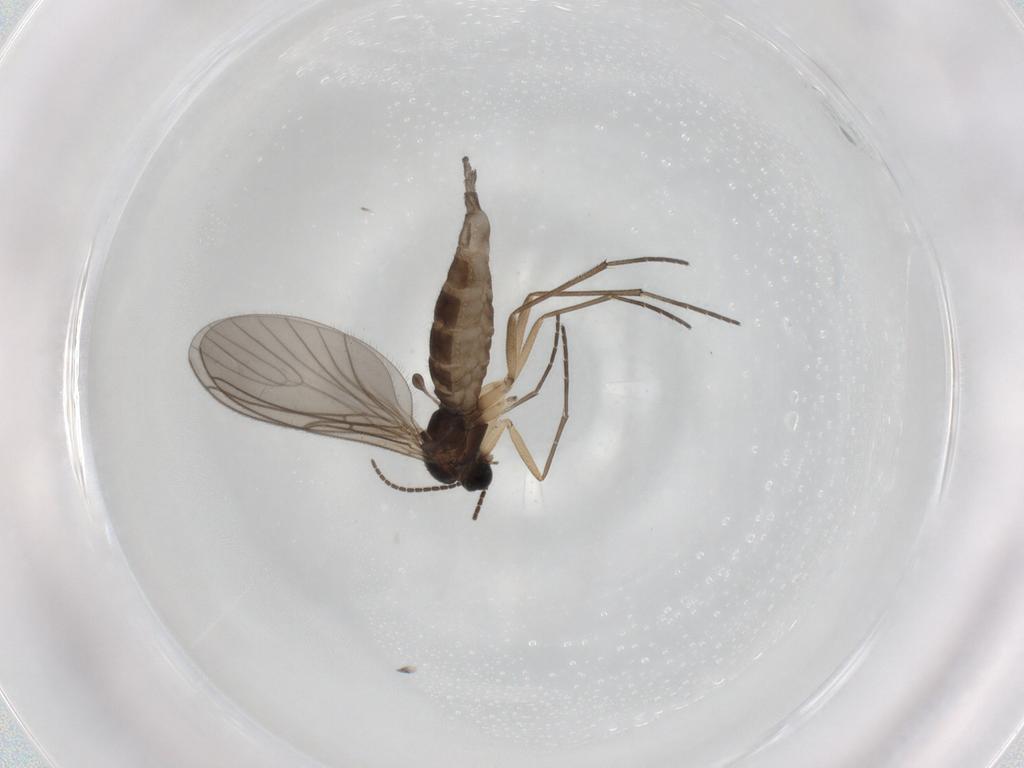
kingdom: Animalia
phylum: Arthropoda
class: Insecta
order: Diptera
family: Sciaridae
